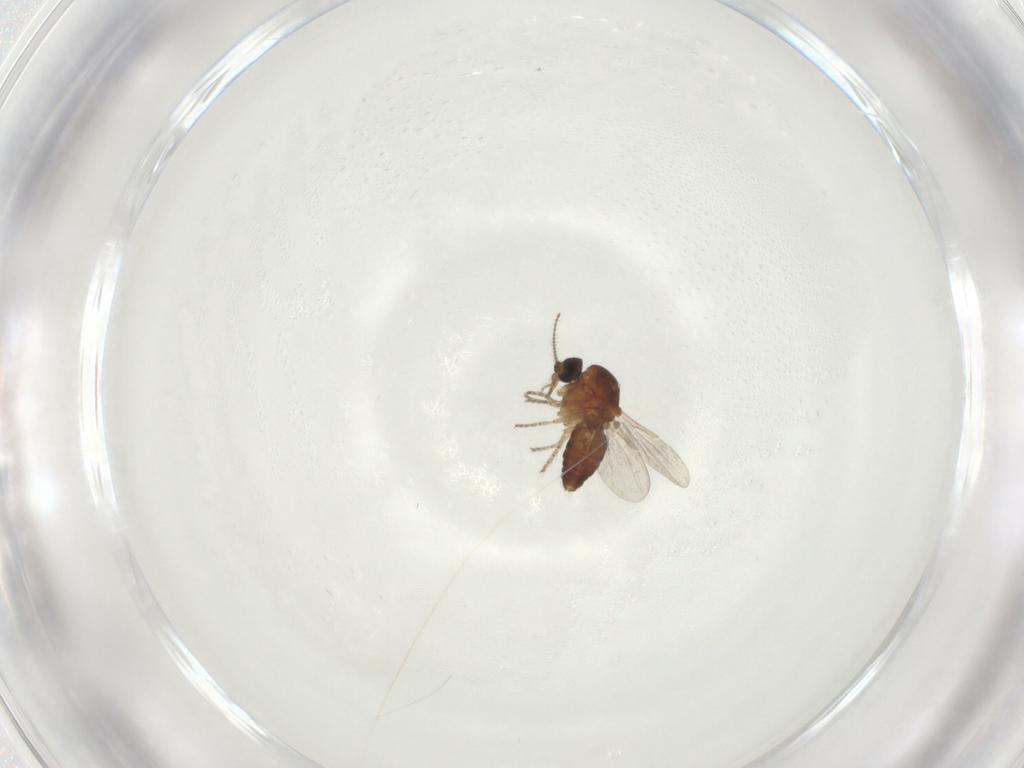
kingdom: Animalia
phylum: Arthropoda
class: Insecta
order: Diptera
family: Ceratopogonidae
